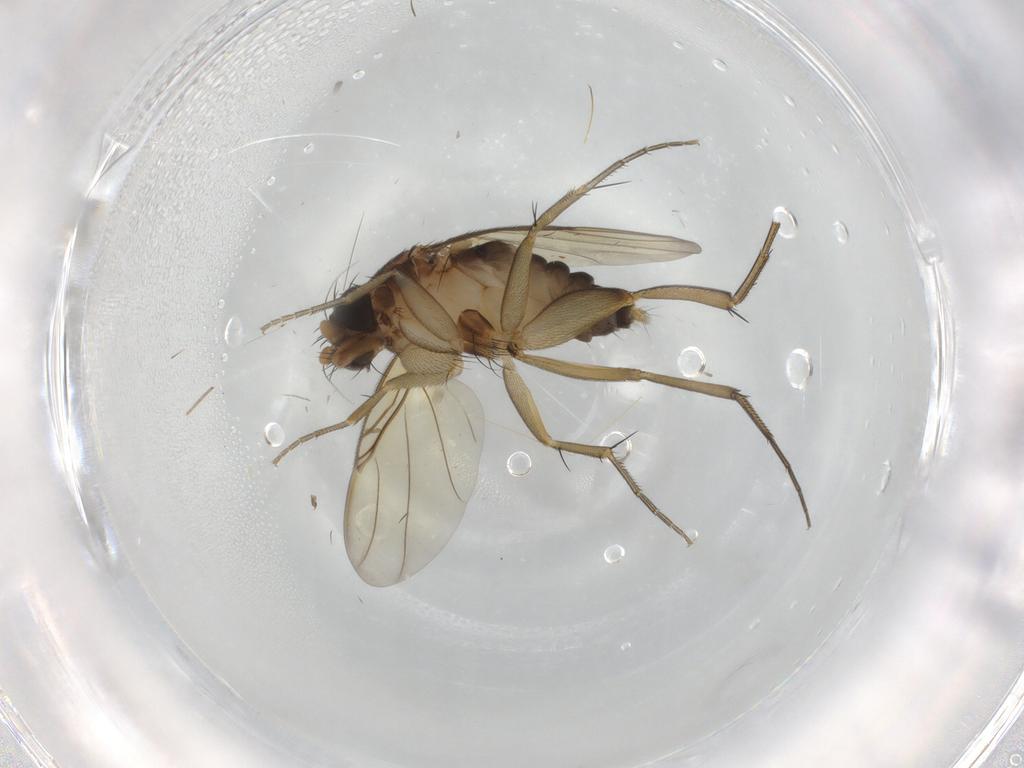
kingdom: Animalia
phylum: Arthropoda
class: Insecta
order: Diptera
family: Phoridae
